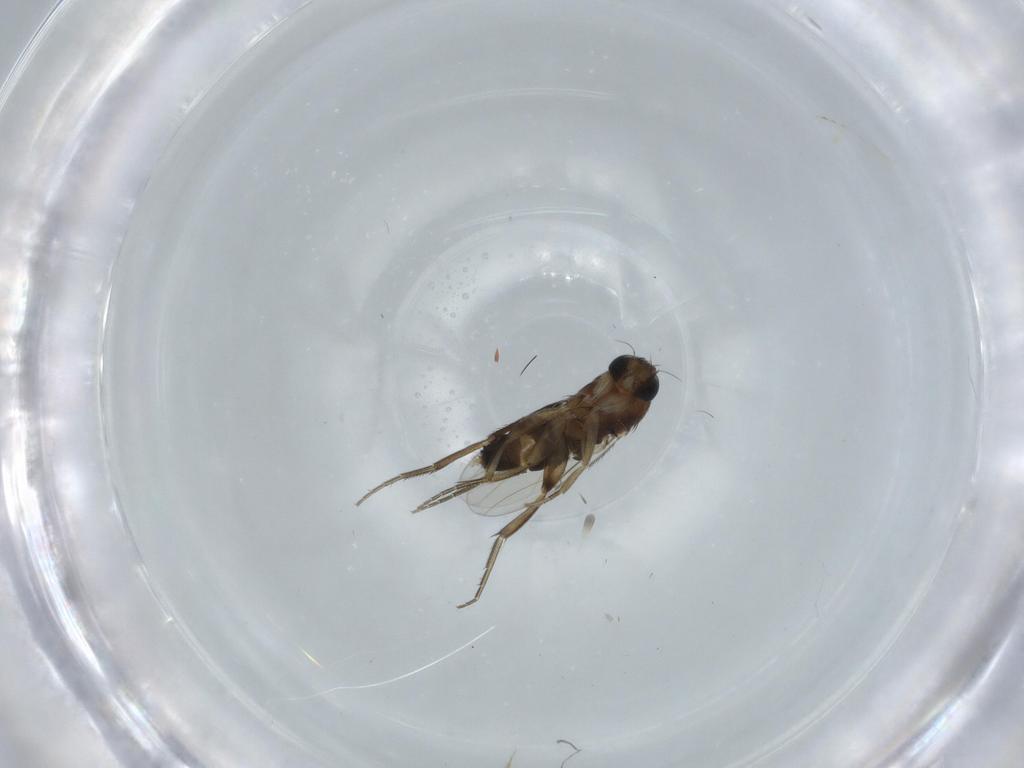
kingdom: Animalia
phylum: Arthropoda
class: Insecta
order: Diptera
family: Phoridae
